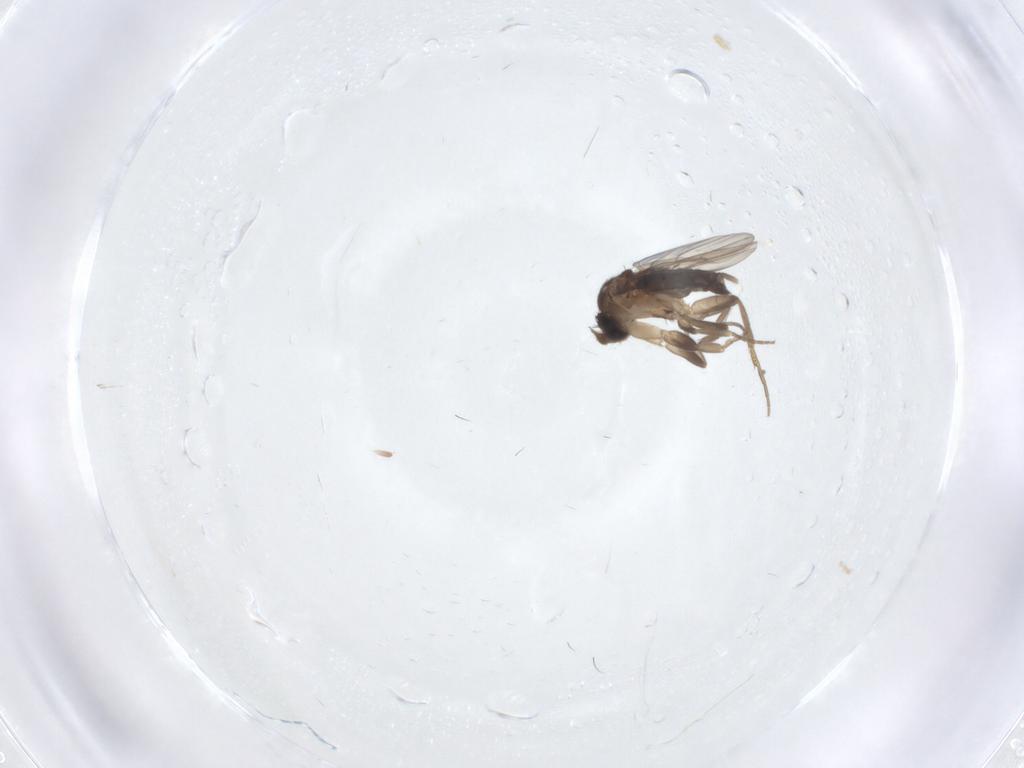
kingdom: Animalia
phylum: Arthropoda
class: Insecta
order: Diptera
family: Phoridae
